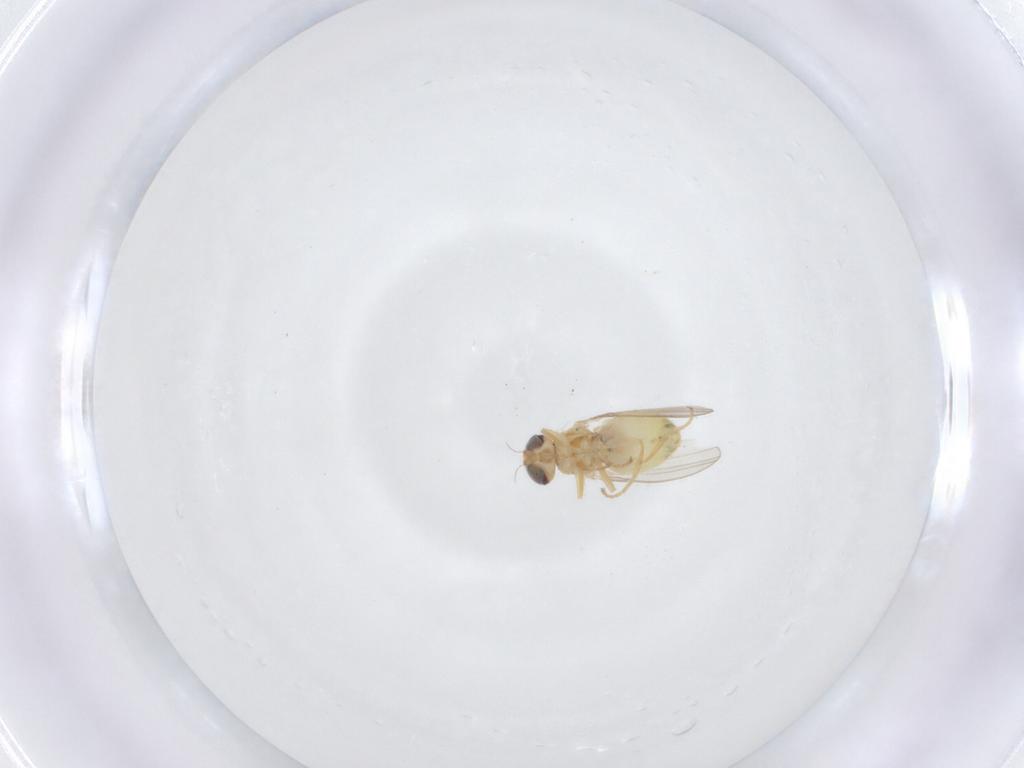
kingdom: Animalia
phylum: Arthropoda
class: Insecta
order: Diptera
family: Chyromyidae
